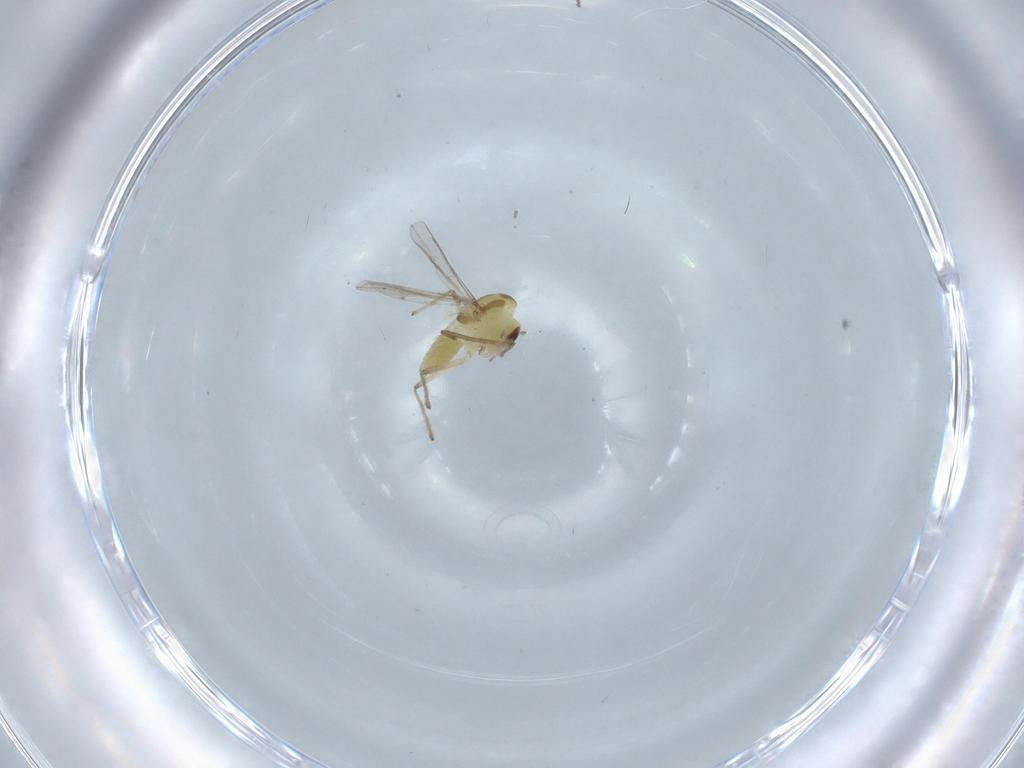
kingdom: Animalia
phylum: Arthropoda
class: Insecta
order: Diptera
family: Chironomidae
